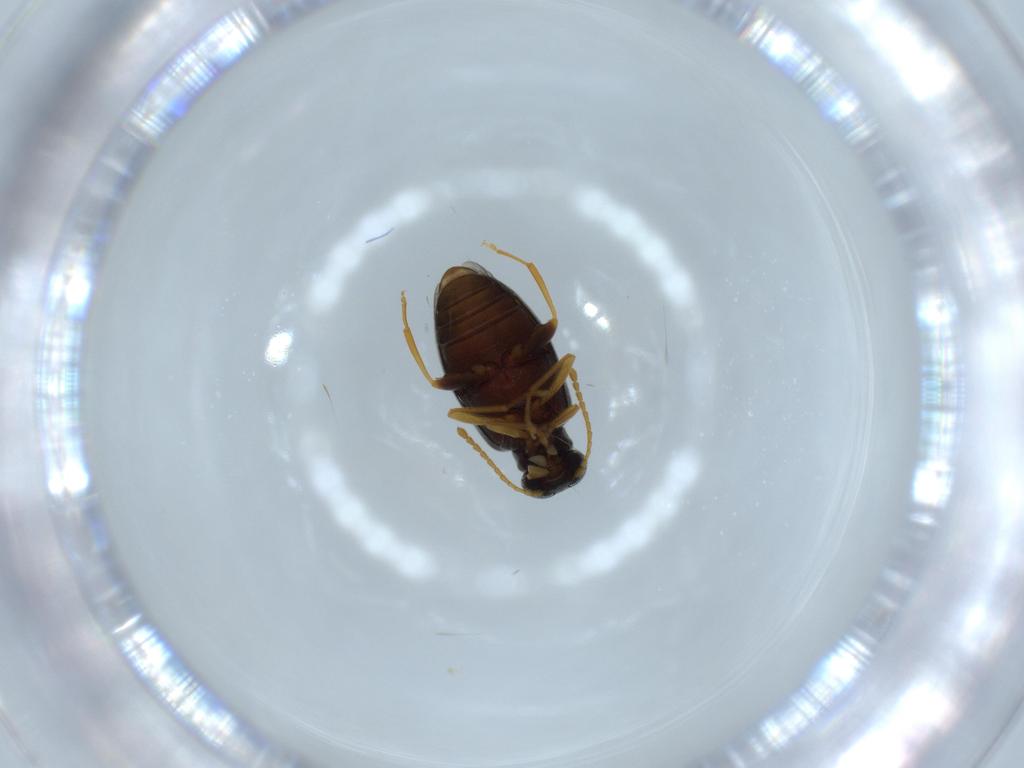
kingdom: Animalia
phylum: Arthropoda
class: Insecta
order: Coleoptera
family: Aderidae
